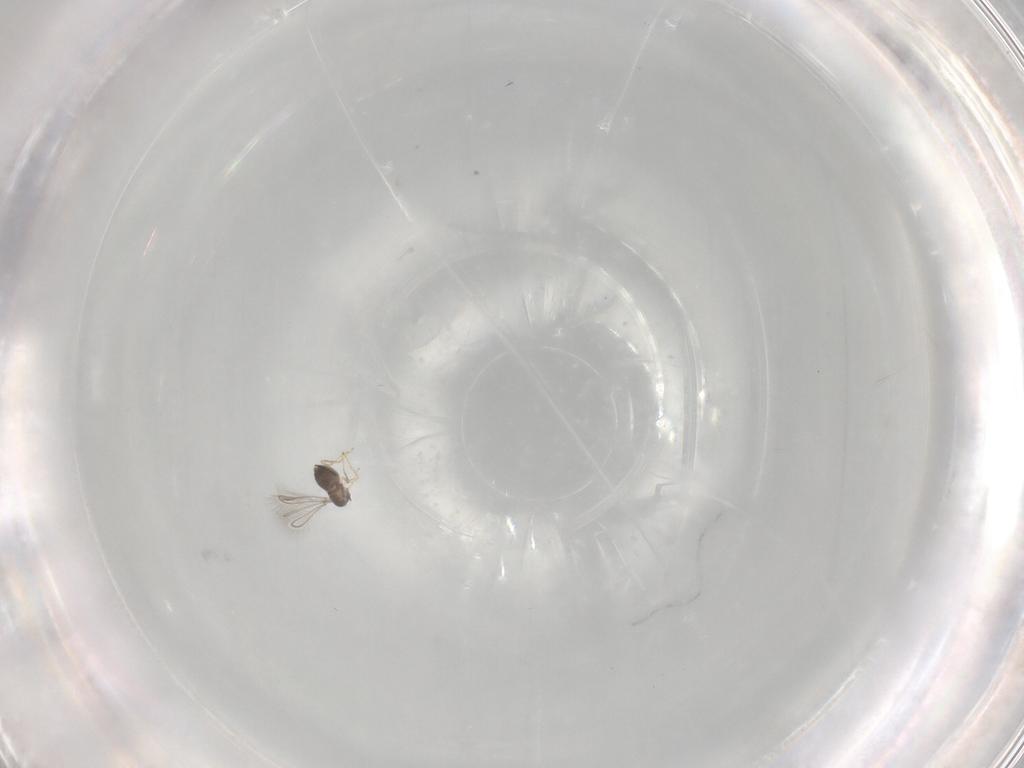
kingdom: Animalia
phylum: Arthropoda
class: Insecta
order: Hymenoptera
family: Mymaridae
